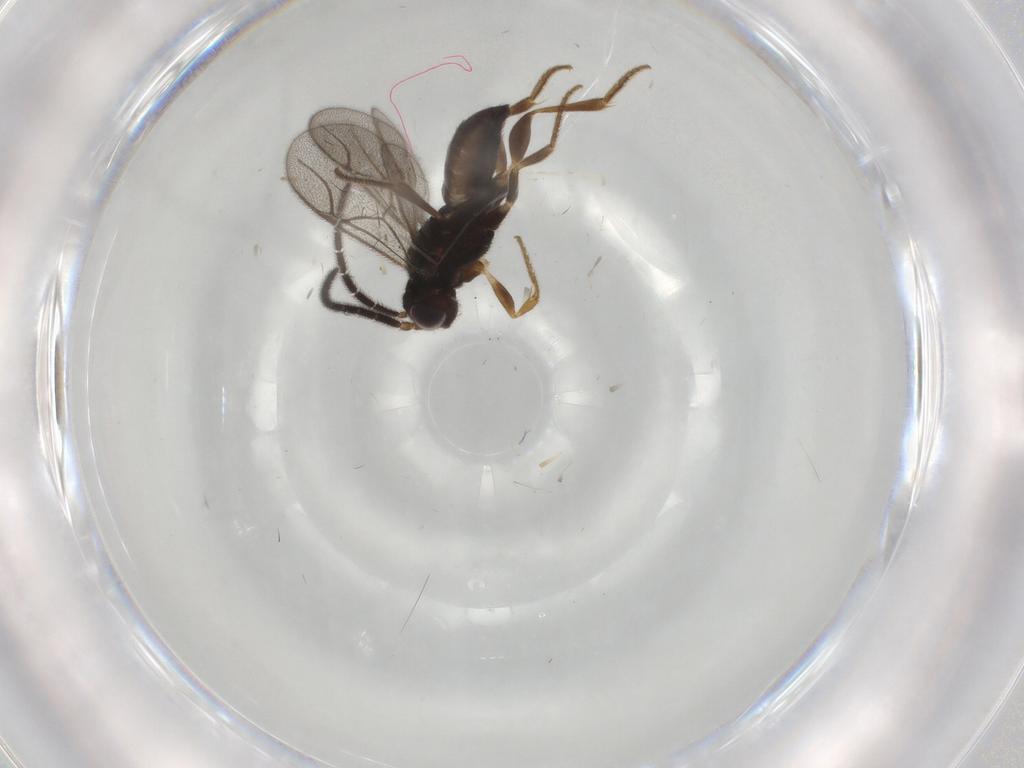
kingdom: Animalia
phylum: Arthropoda
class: Insecta
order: Hymenoptera
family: Dryinidae
